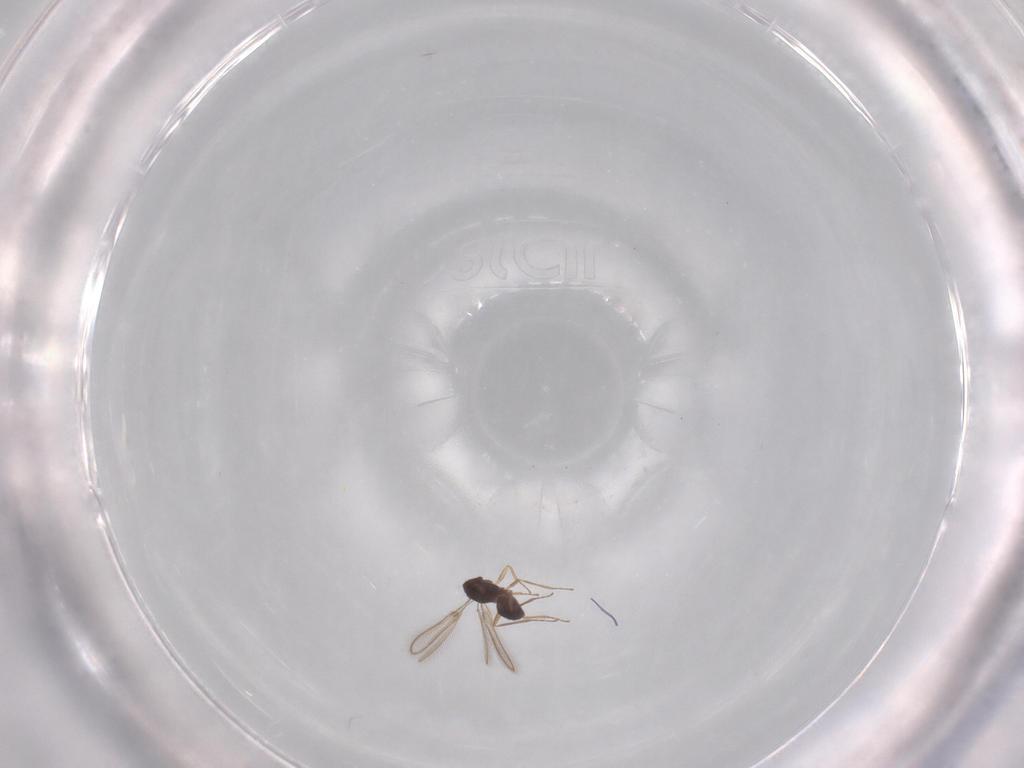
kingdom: Animalia
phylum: Arthropoda
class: Insecta
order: Hymenoptera
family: Mymaridae
